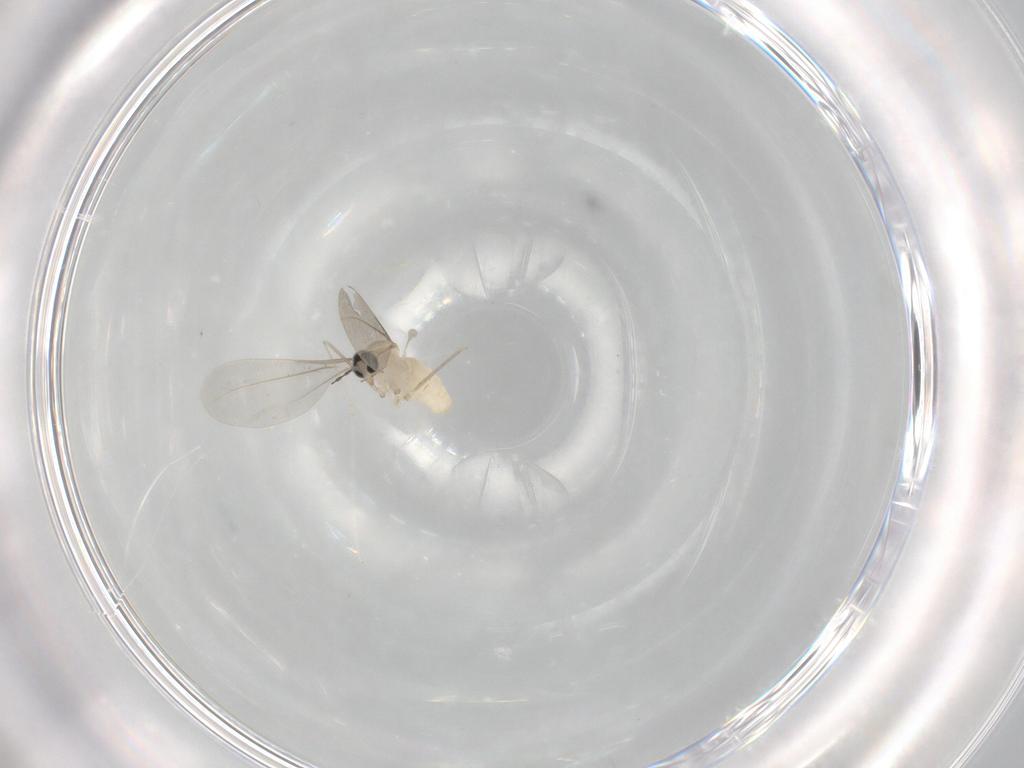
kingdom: Animalia
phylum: Arthropoda
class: Insecta
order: Diptera
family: Cecidomyiidae
